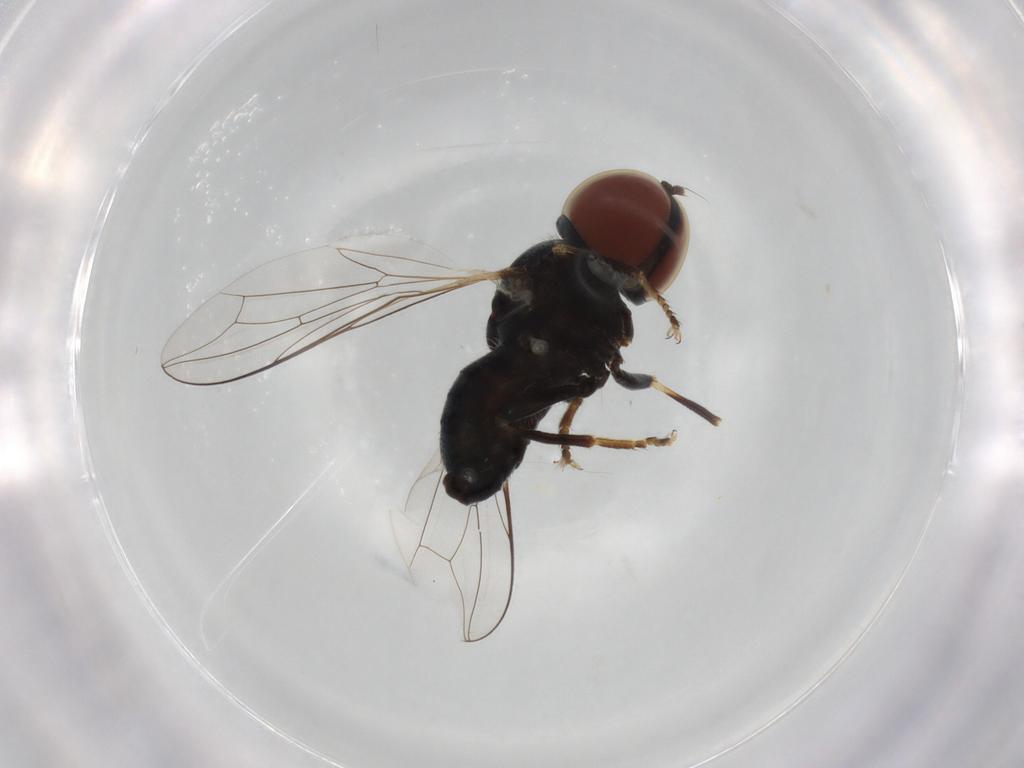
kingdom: Animalia
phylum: Arthropoda
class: Insecta
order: Diptera
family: Pipunculidae
